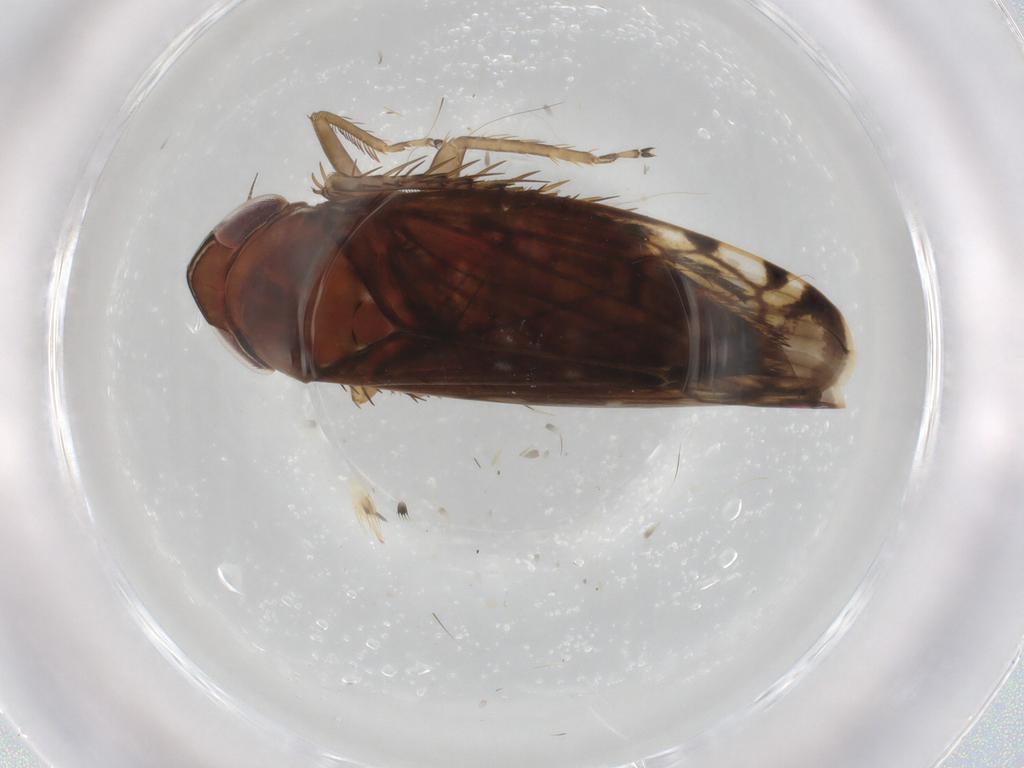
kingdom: Animalia
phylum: Arthropoda
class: Insecta
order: Hemiptera
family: Cicadellidae
